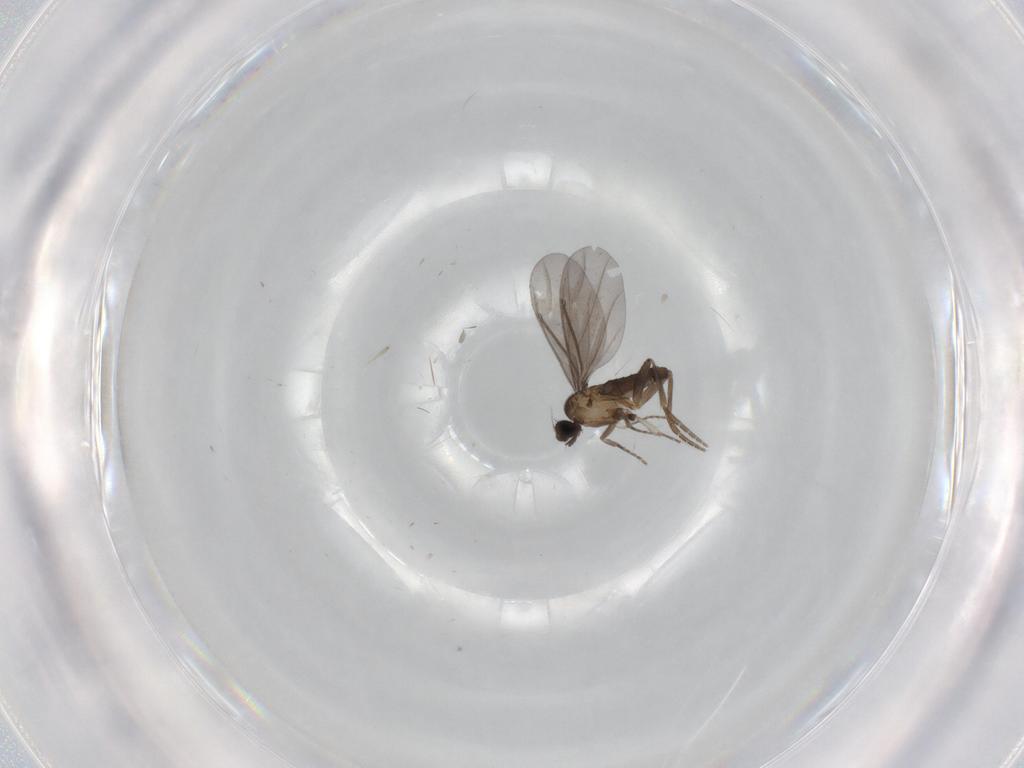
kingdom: Animalia
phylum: Arthropoda
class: Insecta
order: Diptera
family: Phoridae
